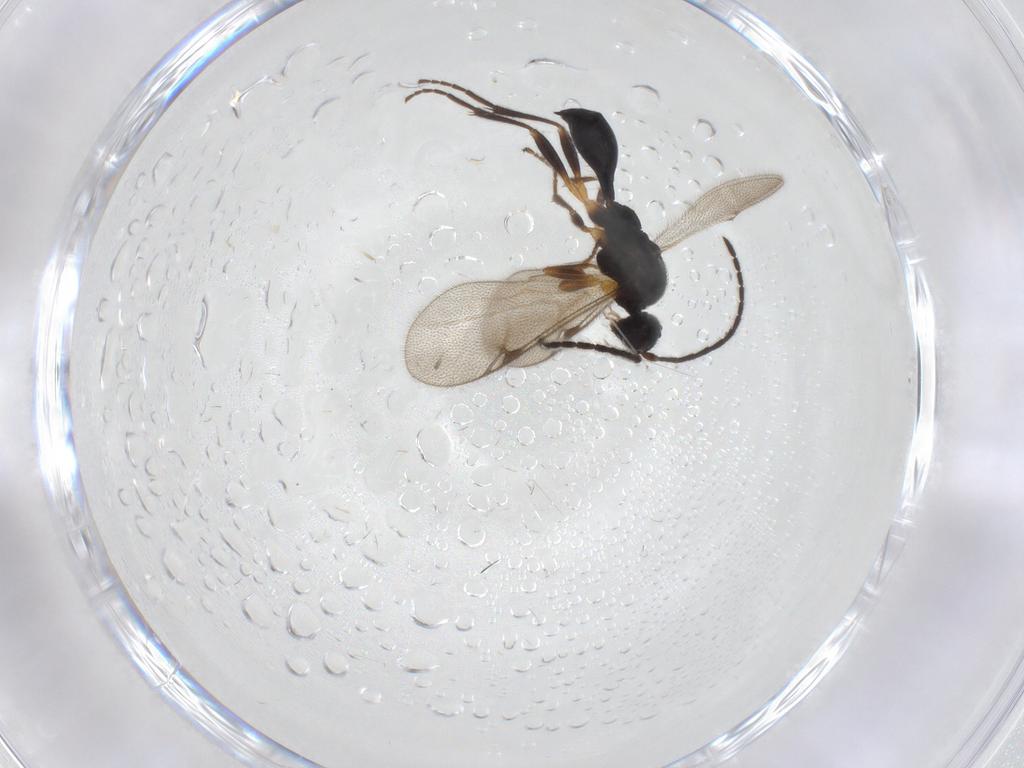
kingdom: Animalia
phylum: Arthropoda
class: Insecta
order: Hymenoptera
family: Proctotrupidae
